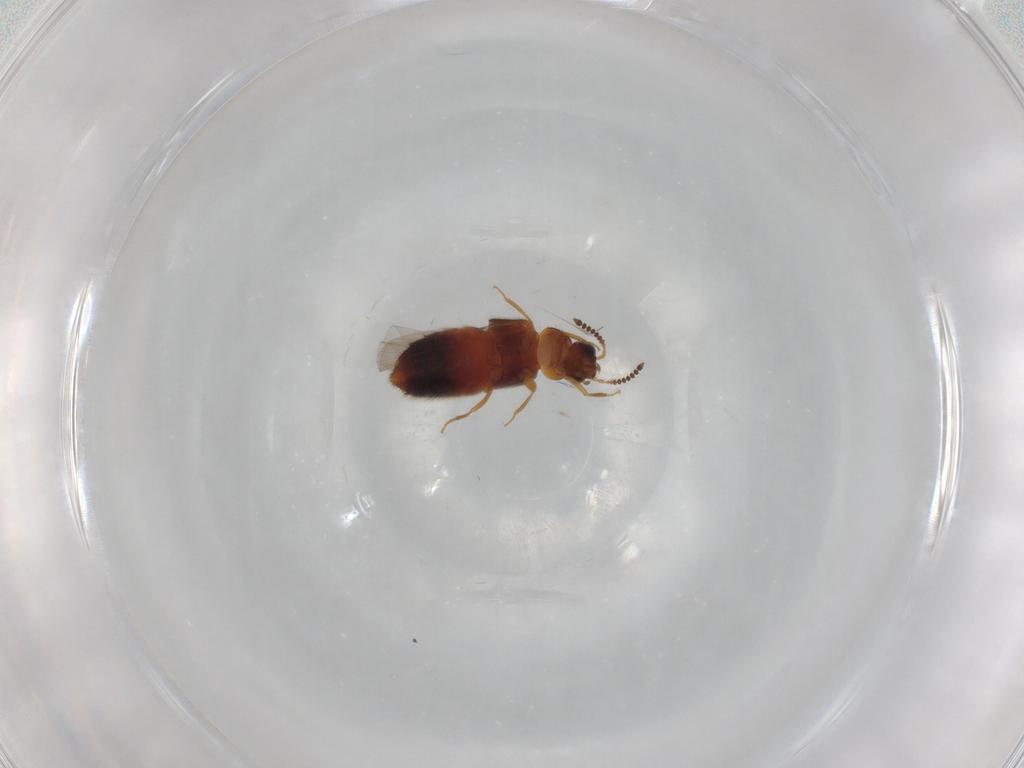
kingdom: Animalia
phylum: Arthropoda
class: Insecta
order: Coleoptera
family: Staphylinidae
